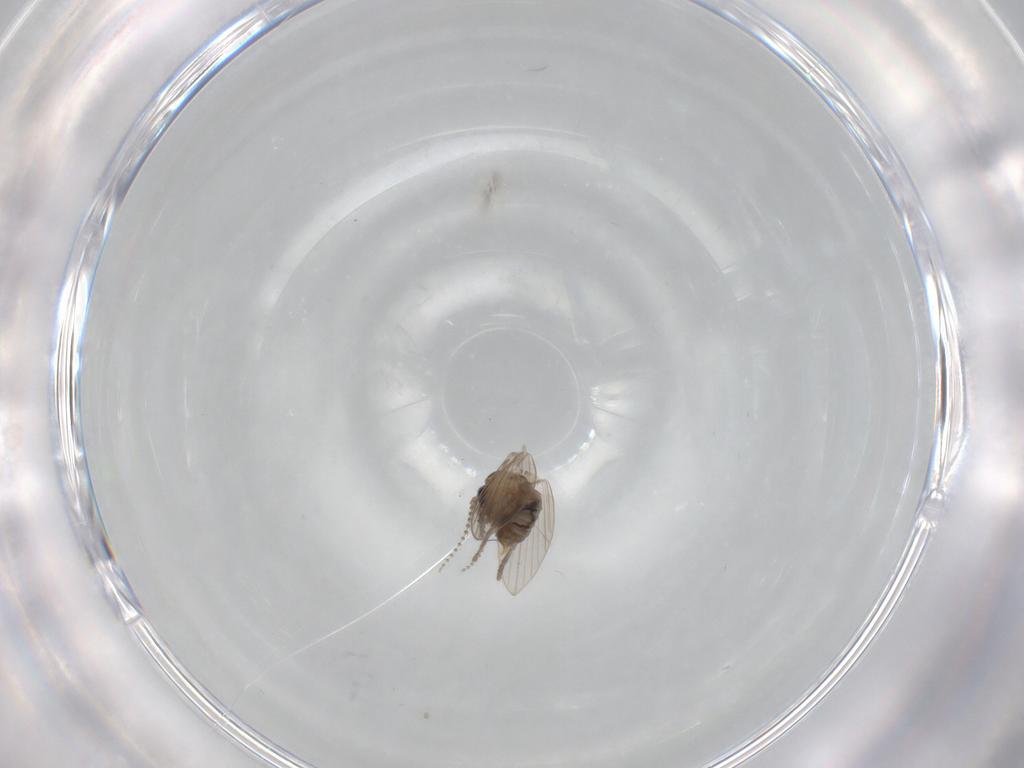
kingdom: Animalia
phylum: Arthropoda
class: Insecta
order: Diptera
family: Psychodidae
